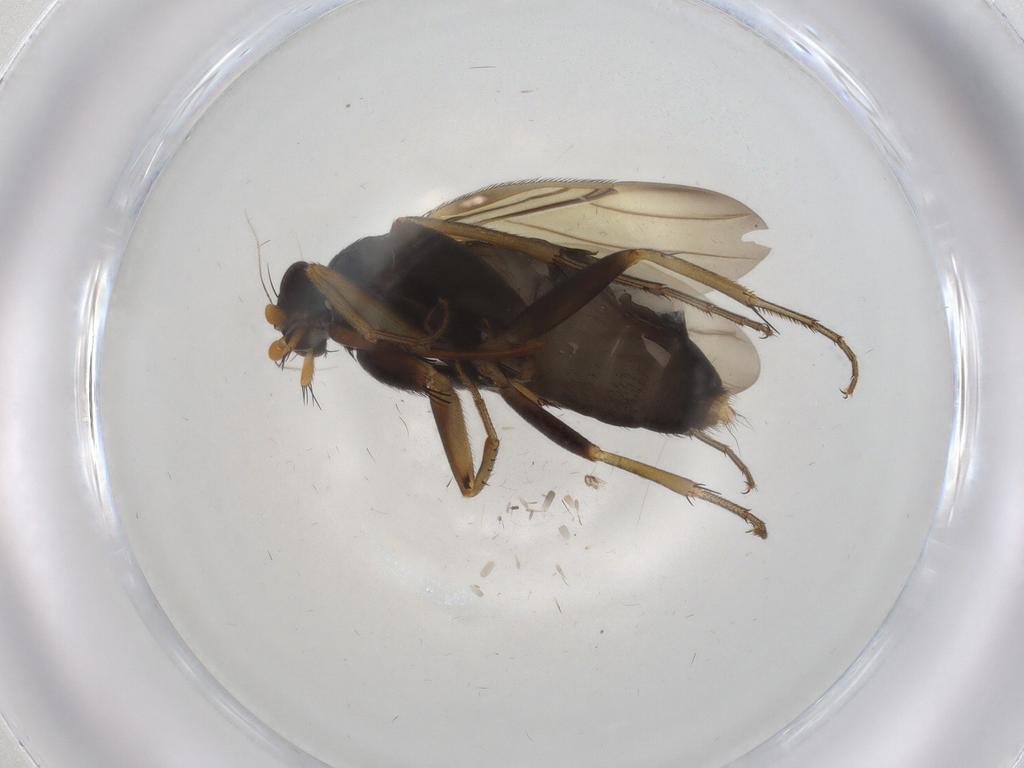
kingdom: Animalia
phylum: Arthropoda
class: Insecta
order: Diptera
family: Phoridae
